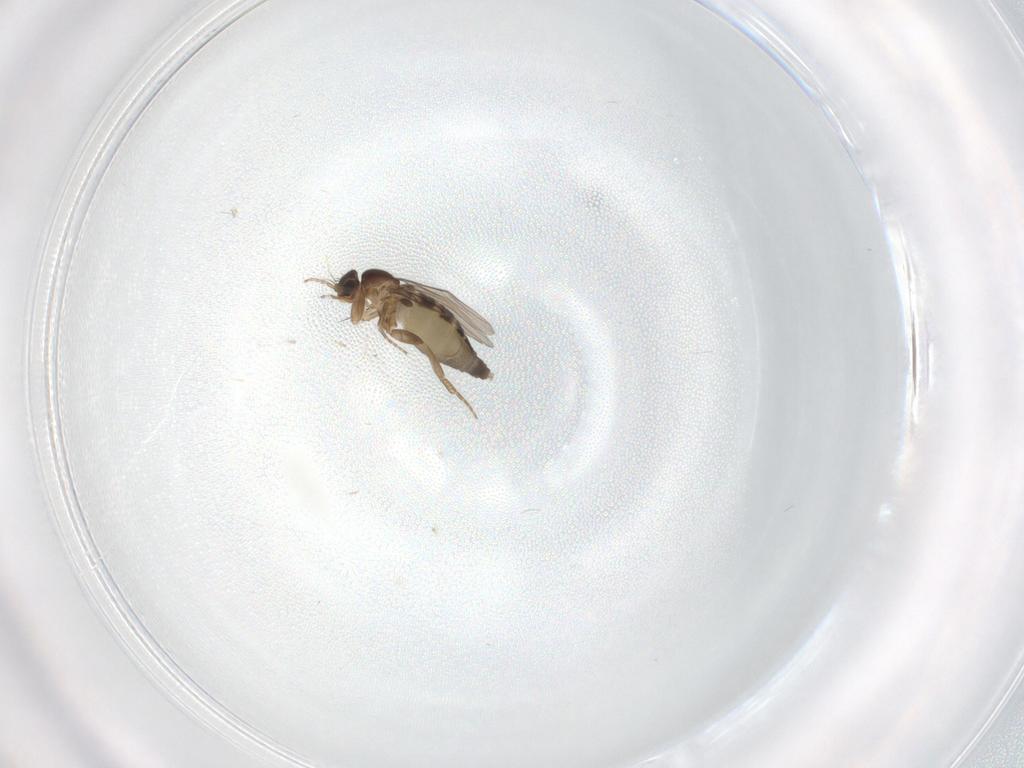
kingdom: Animalia
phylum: Arthropoda
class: Insecta
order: Diptera
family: Phoridae
